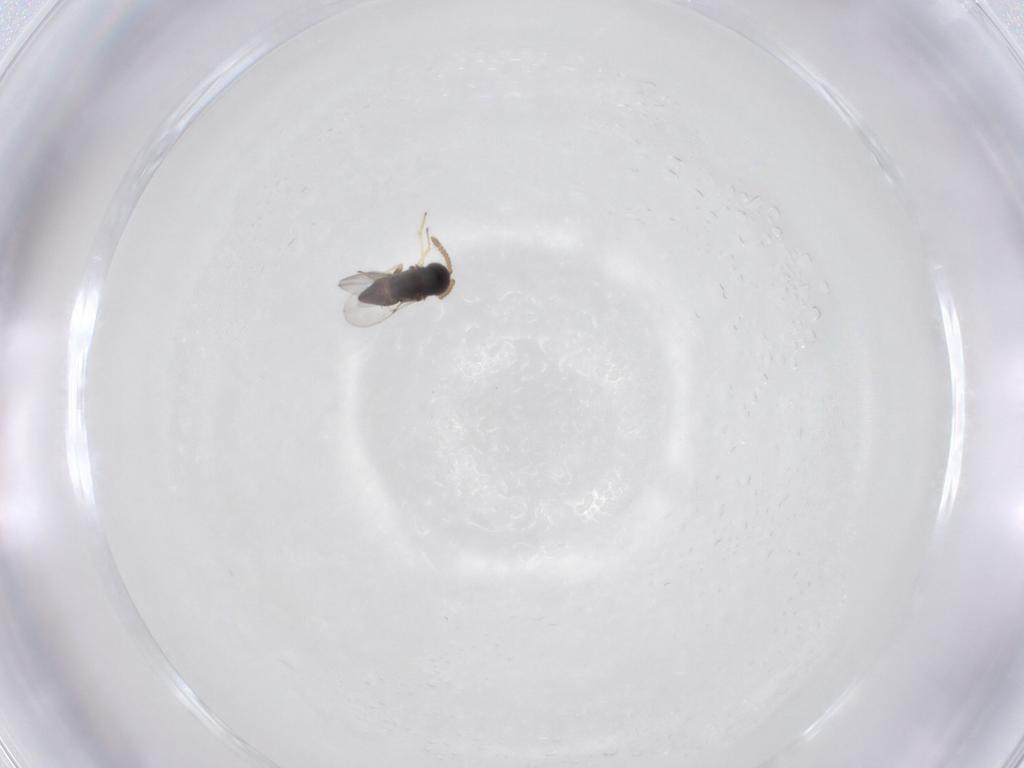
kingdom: Animalia
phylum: Arthropoda
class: Insecta
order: Hymenoptera
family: Encyrtidae
